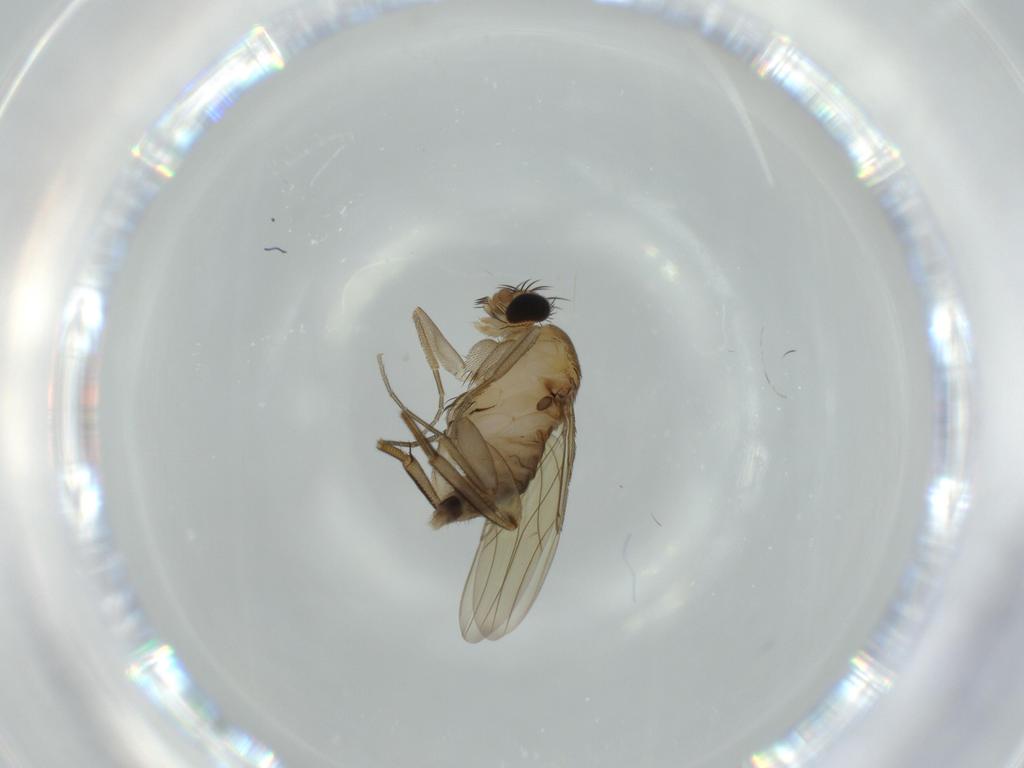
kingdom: Animalia
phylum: Arthropoda
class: Insecta
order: Diptera
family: Phoridae
